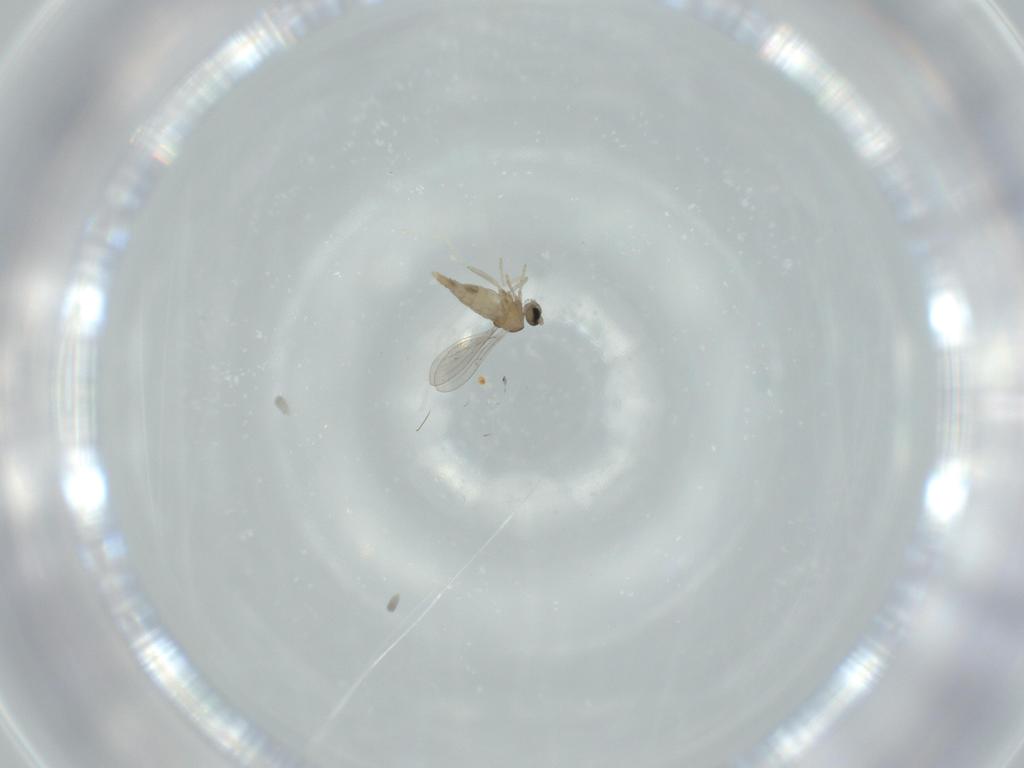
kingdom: Animalia
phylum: Arthropoda
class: Insecta
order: Diptera
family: Cecidomyiidae
